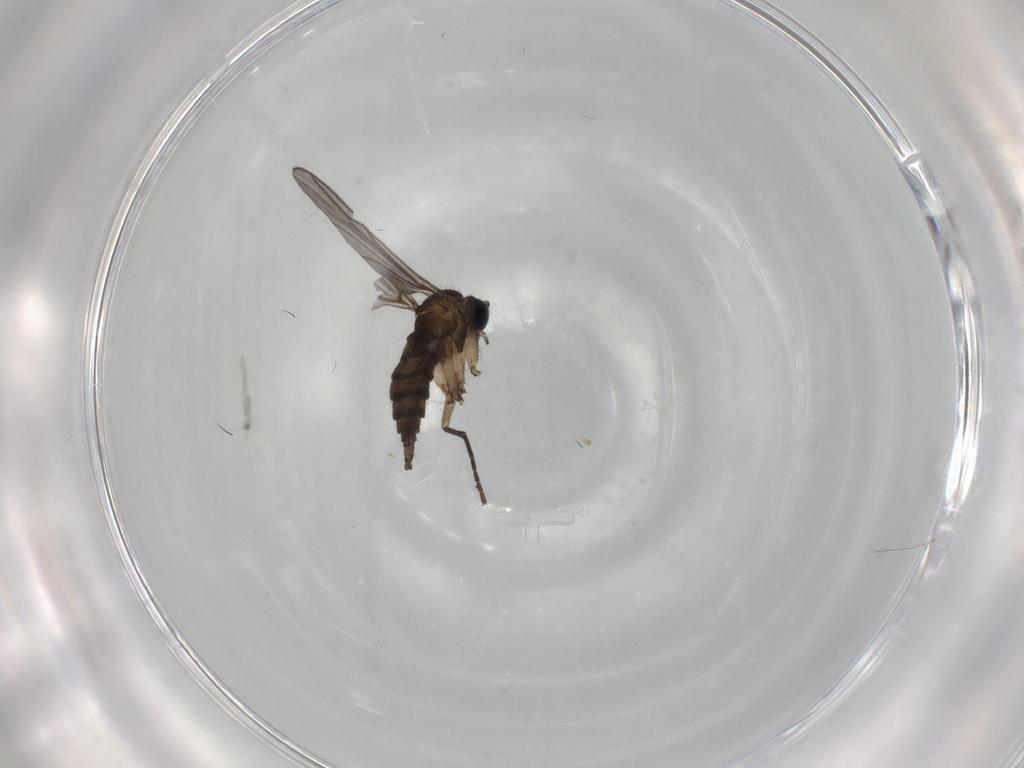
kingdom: Animalia
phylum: Arthropoda
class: Insecta
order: Diptera
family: Sciaridae
